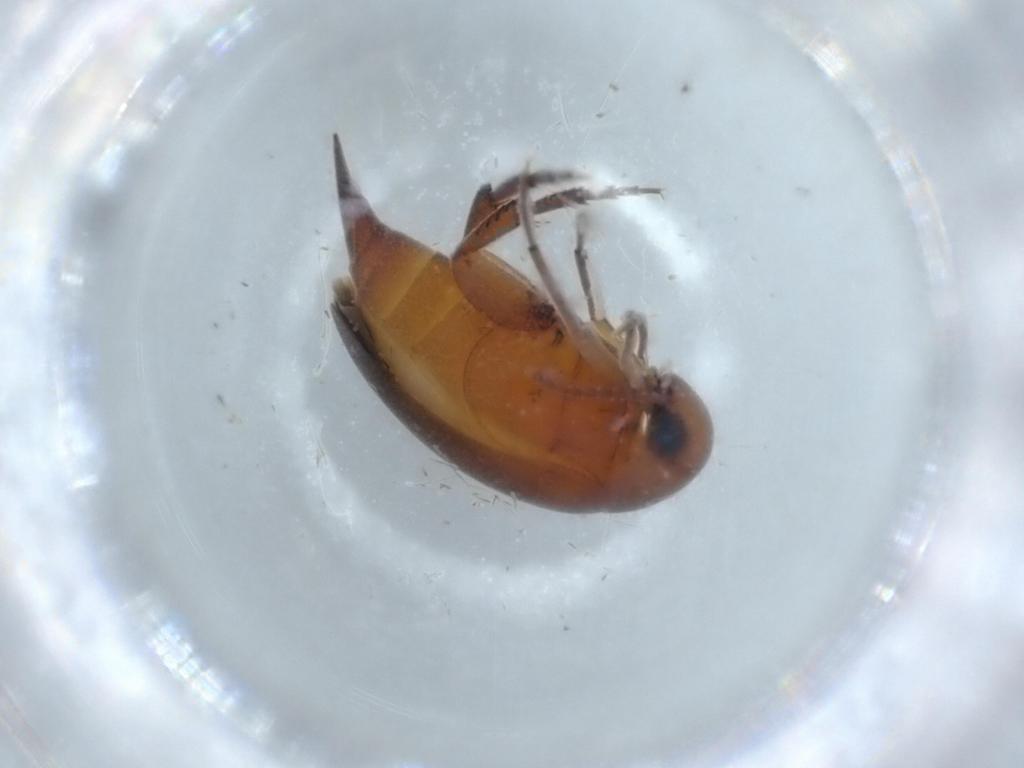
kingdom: Animalia
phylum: Arthropoda
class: Insecta
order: Coleoptera
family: Mordellidae
